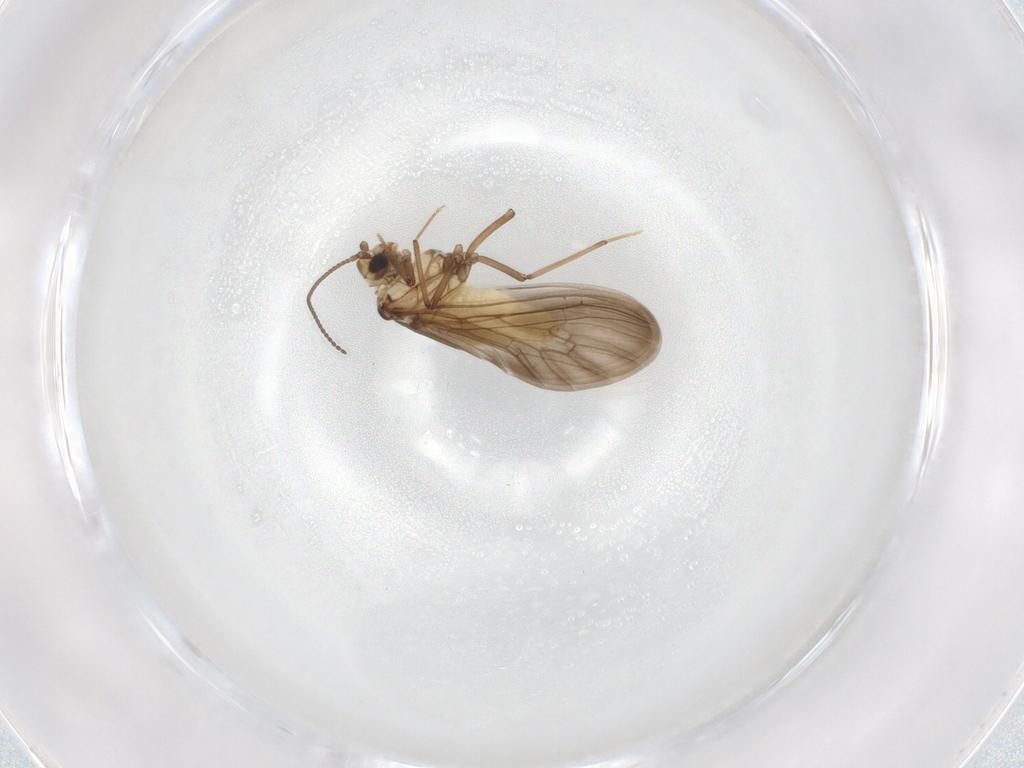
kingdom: Animalia
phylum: Arthropoda
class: Insecta
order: Neuroptera
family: Coniopterygidae
